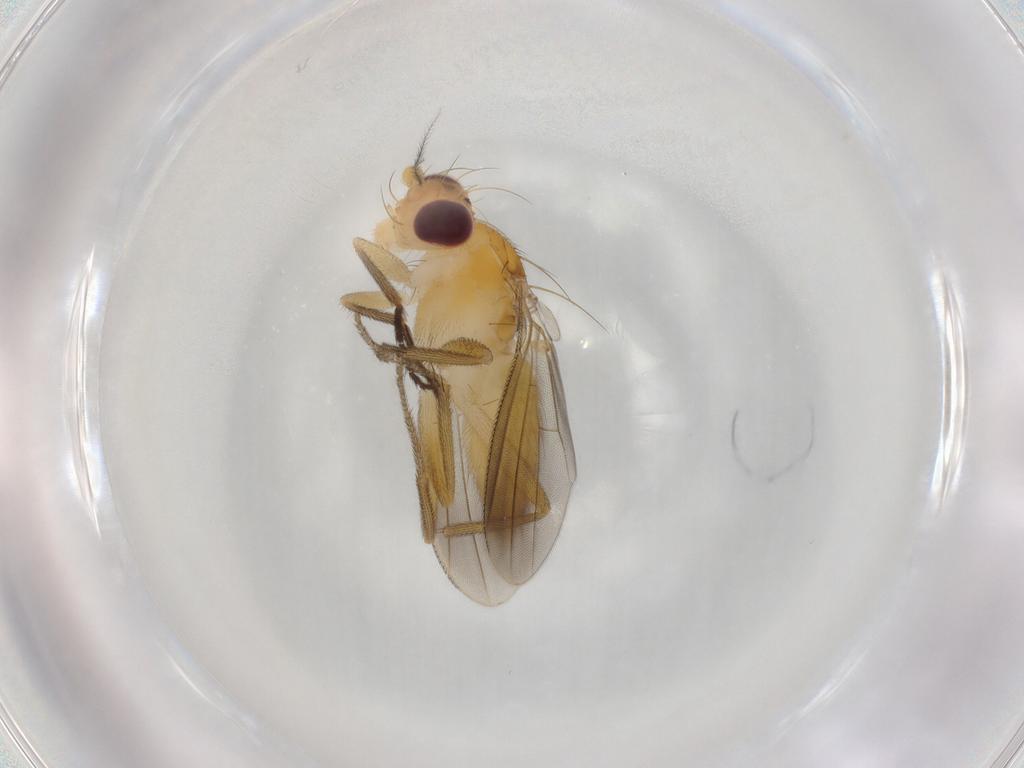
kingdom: Animalia
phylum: Arthropoda
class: Insecta
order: Diptera
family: Clusiidae
